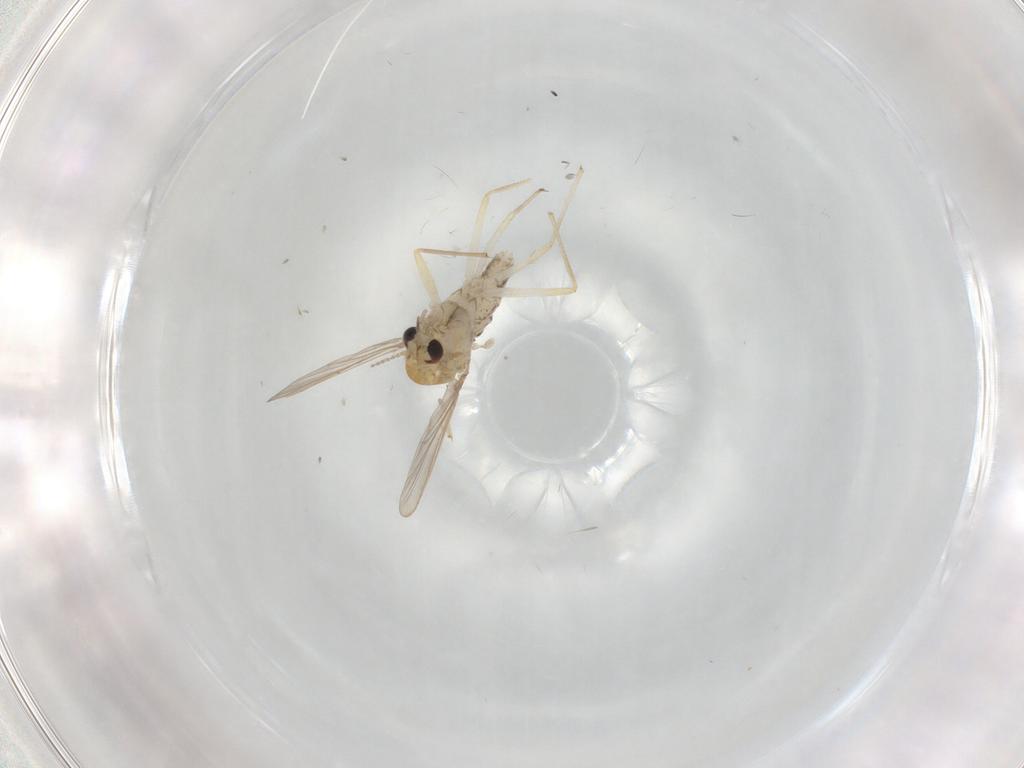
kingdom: Animalia
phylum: Arthropoda
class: Insecta
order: Diptera
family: Chironomidae
